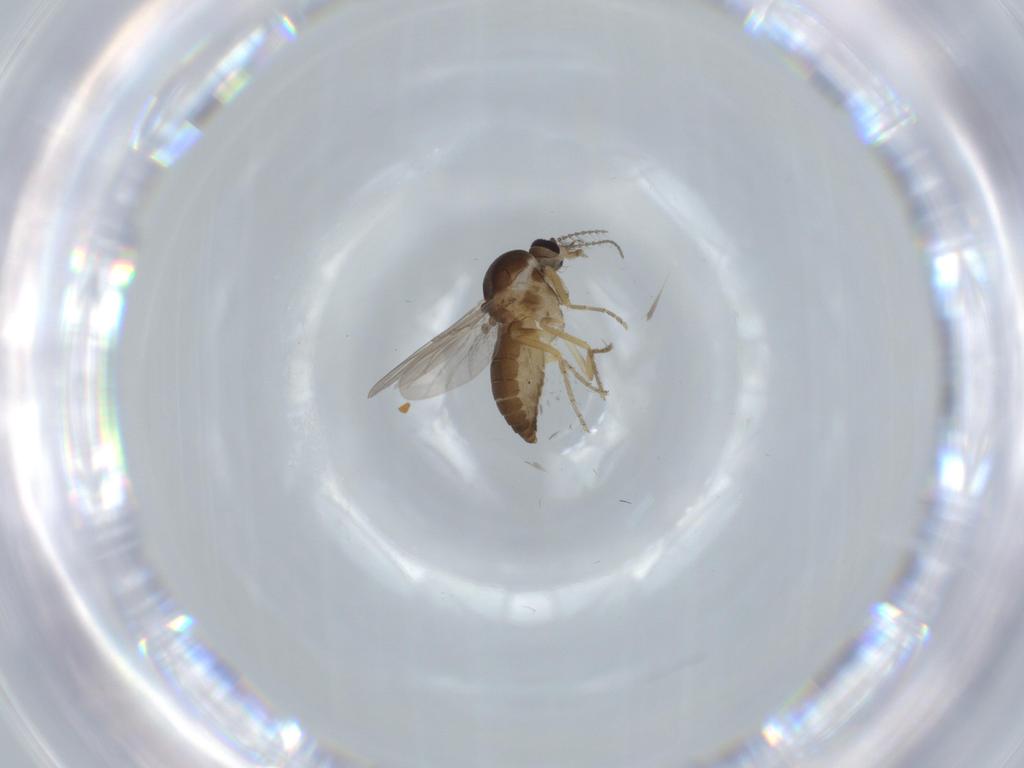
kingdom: Animalia
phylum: Arthropoda
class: Insecta
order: Diptera
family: Ceratopogonidae
